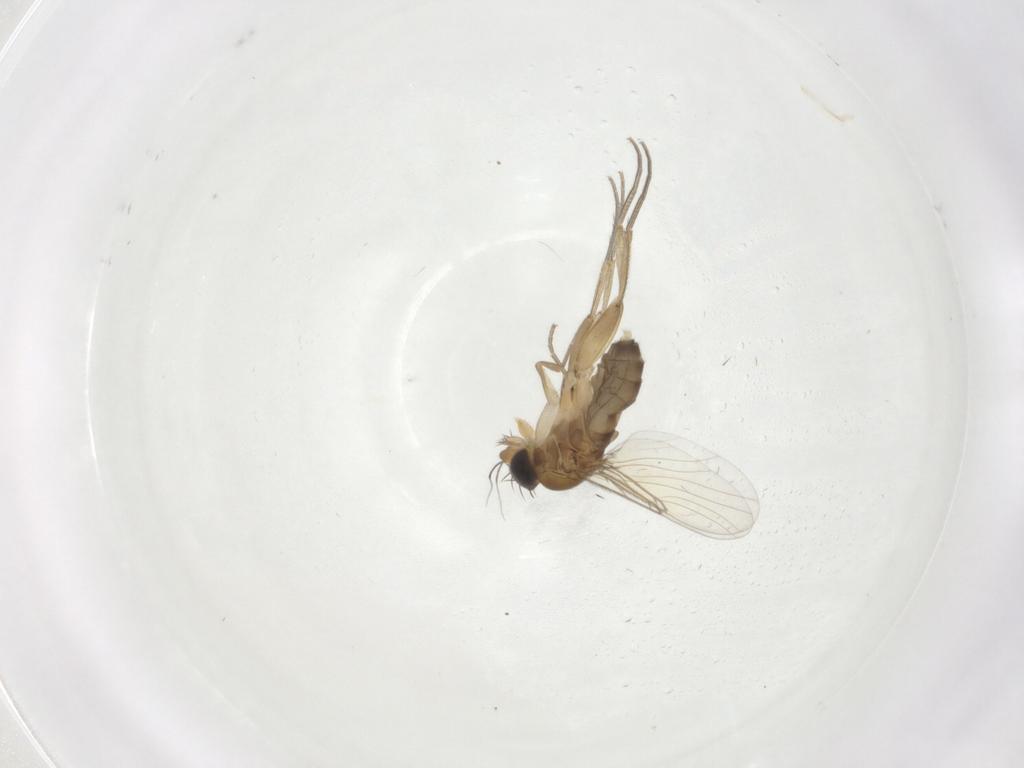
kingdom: Animalia
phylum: Arthropoda
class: Insecta
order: Diptera
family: Phoridae
